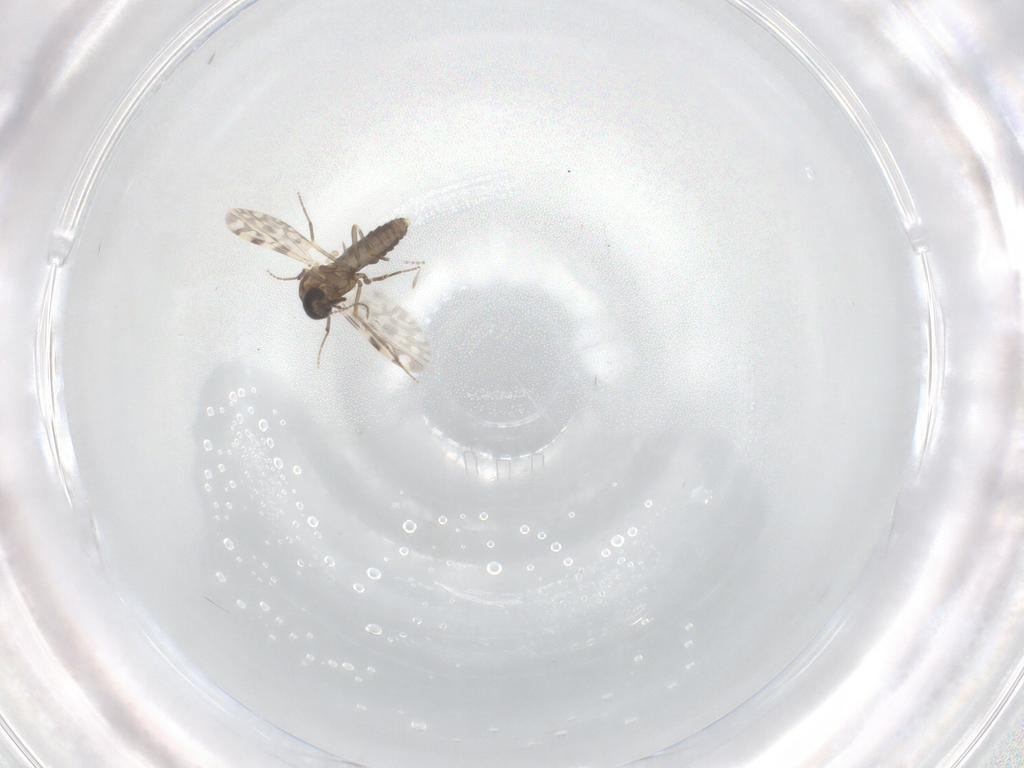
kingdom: Animalia
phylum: Arthropoda
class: Insecta
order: Diptera
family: Cecidomyiidae
